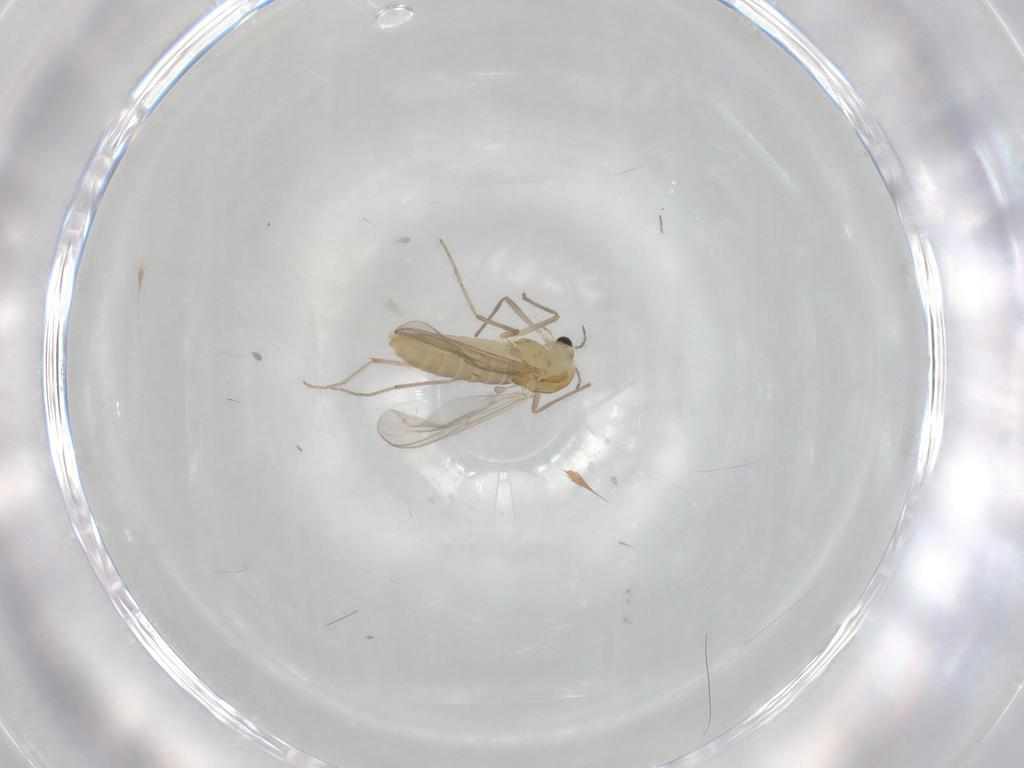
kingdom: Animalia
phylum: Arthropoda
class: Insecta
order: Diptera
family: Chironomidae
